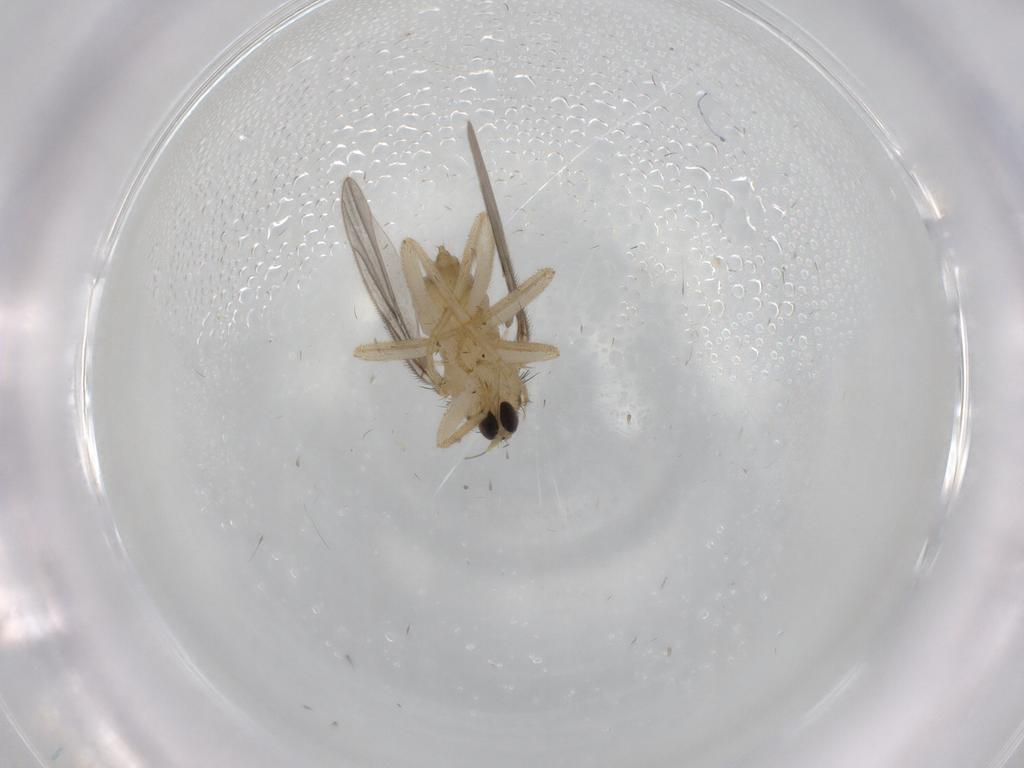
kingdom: Animalia
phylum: Arthropoda
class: Insecta
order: Diptera
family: Hybotidae
